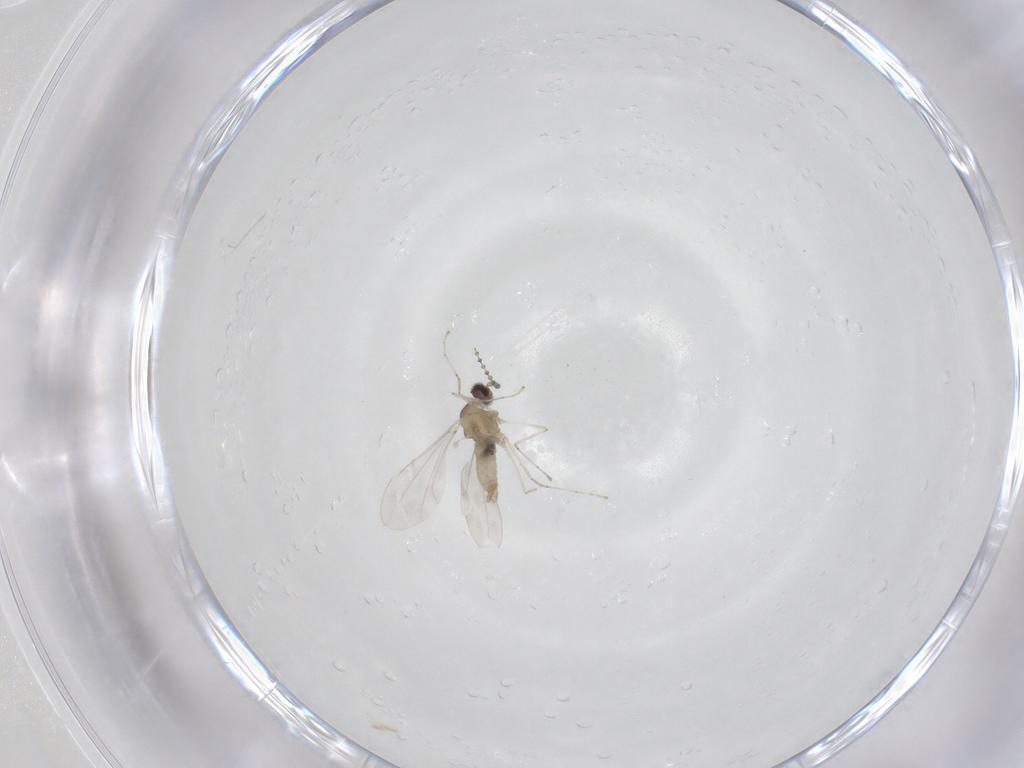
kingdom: Animalia
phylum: Arthropoda
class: Insecta
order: Diptera
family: Cecidomyiidae
